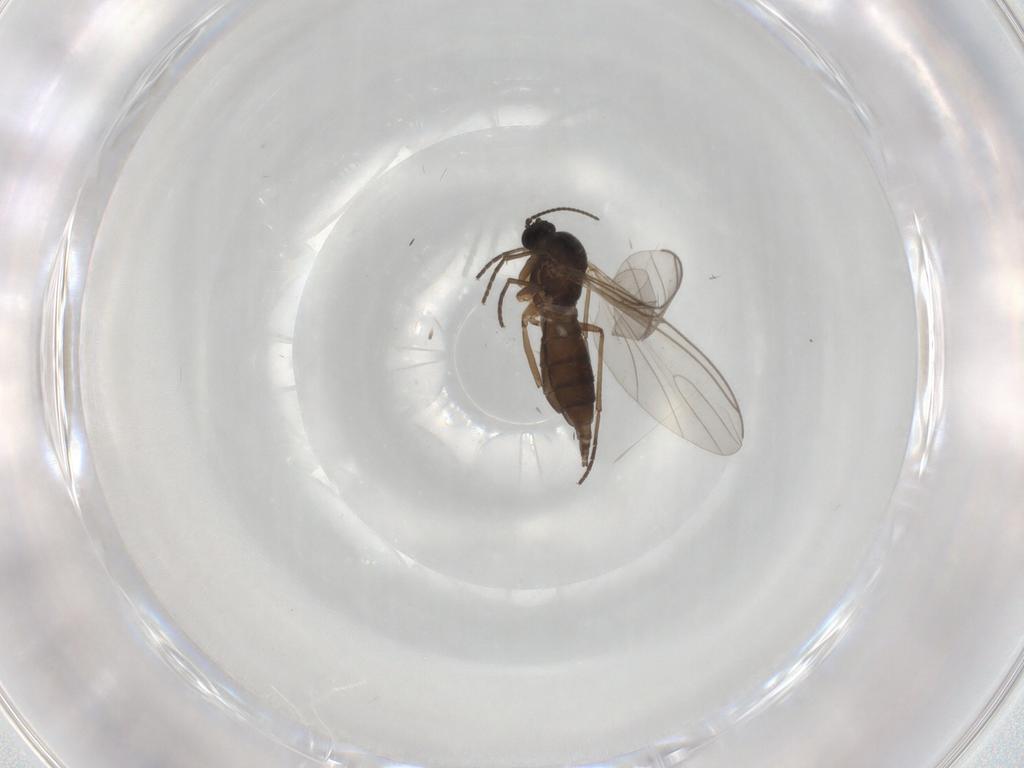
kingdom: Animalia
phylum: Arthropoda
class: Insecta
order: Diptera
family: Sciaridae
